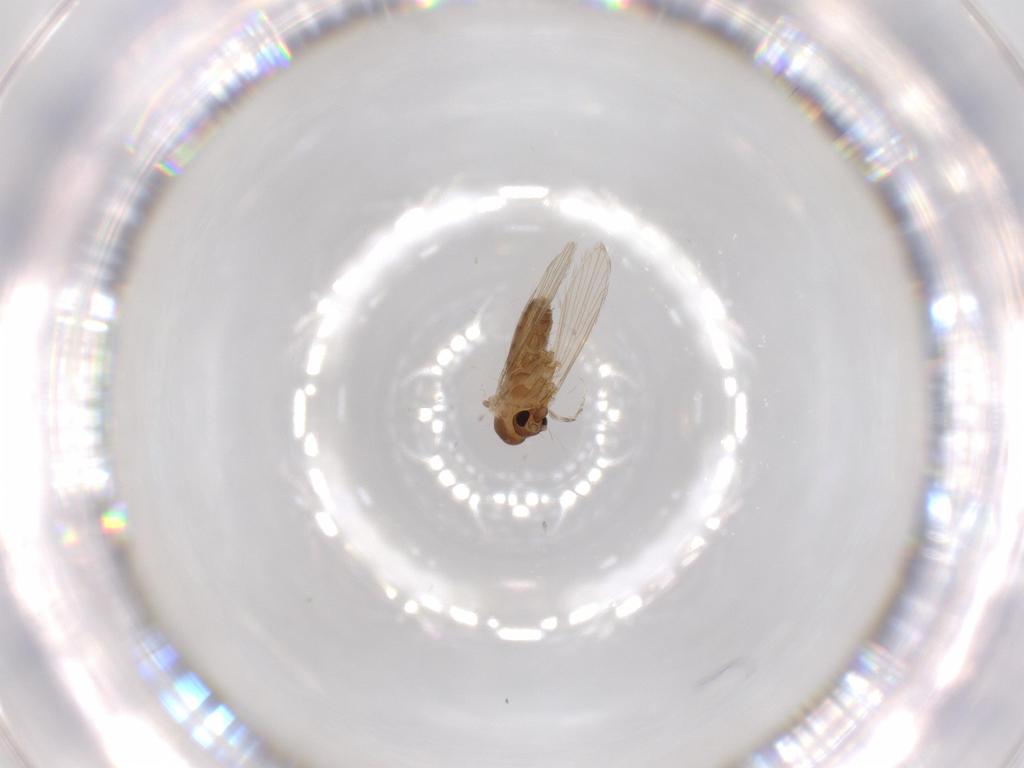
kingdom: Animalia
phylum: Arthropoda
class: Insecta
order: Diptera
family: Psychodidae
